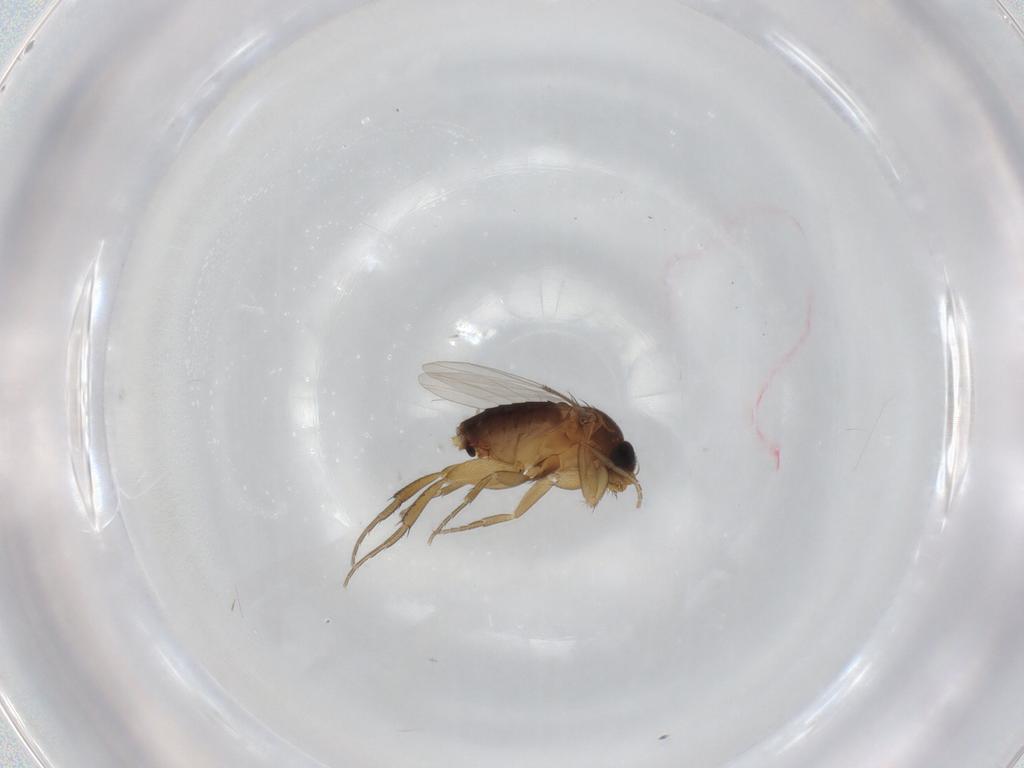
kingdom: Animalia
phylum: Arthropoda
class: Insecta
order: Diptera
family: Phoridae
